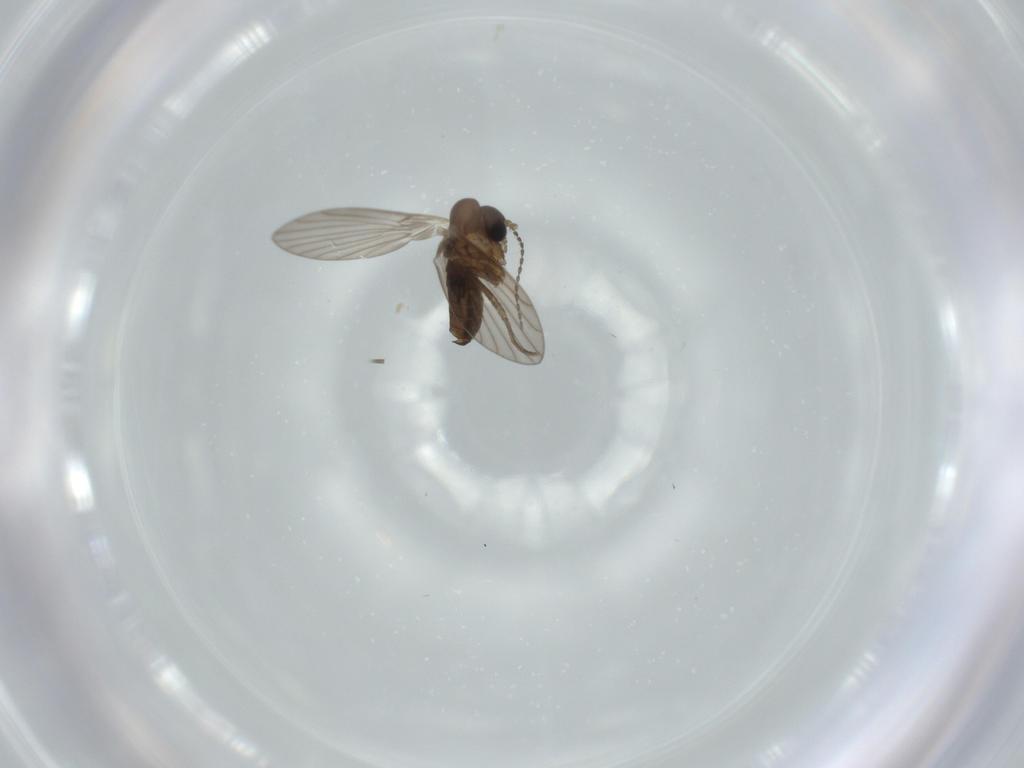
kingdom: Animalia
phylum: Arthropoda
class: Insecta
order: Diptera
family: Psychodidae
